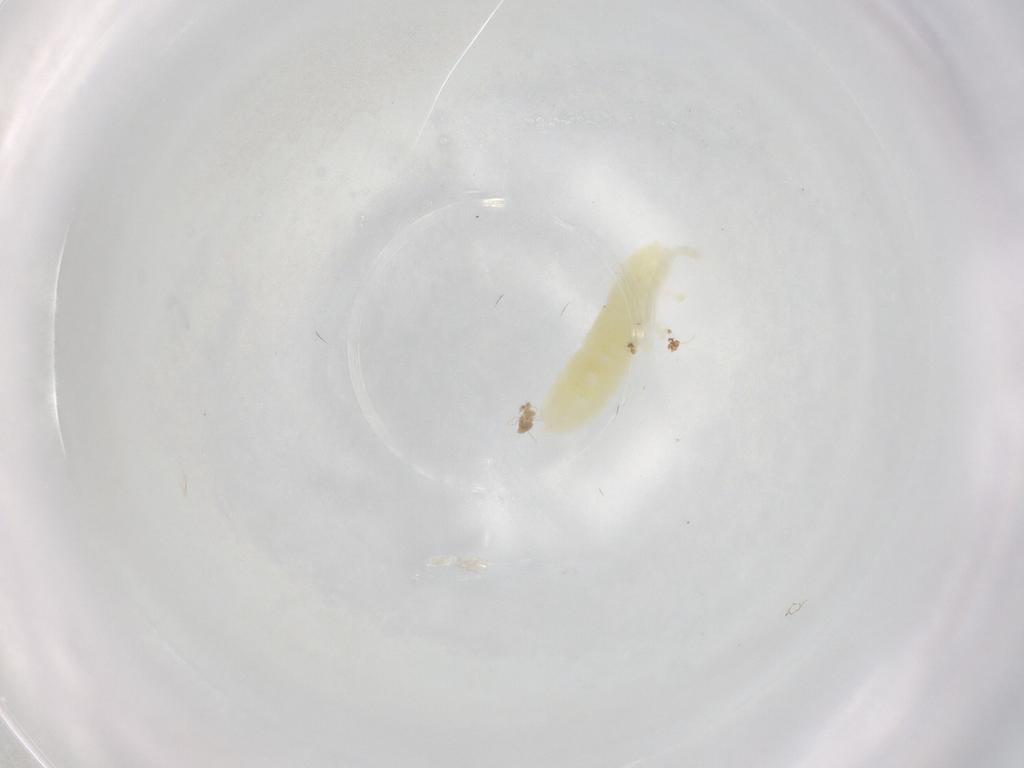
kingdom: Animalia
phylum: Arthropoda
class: Collembola
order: Poduromorpha
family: Onychiuridae
